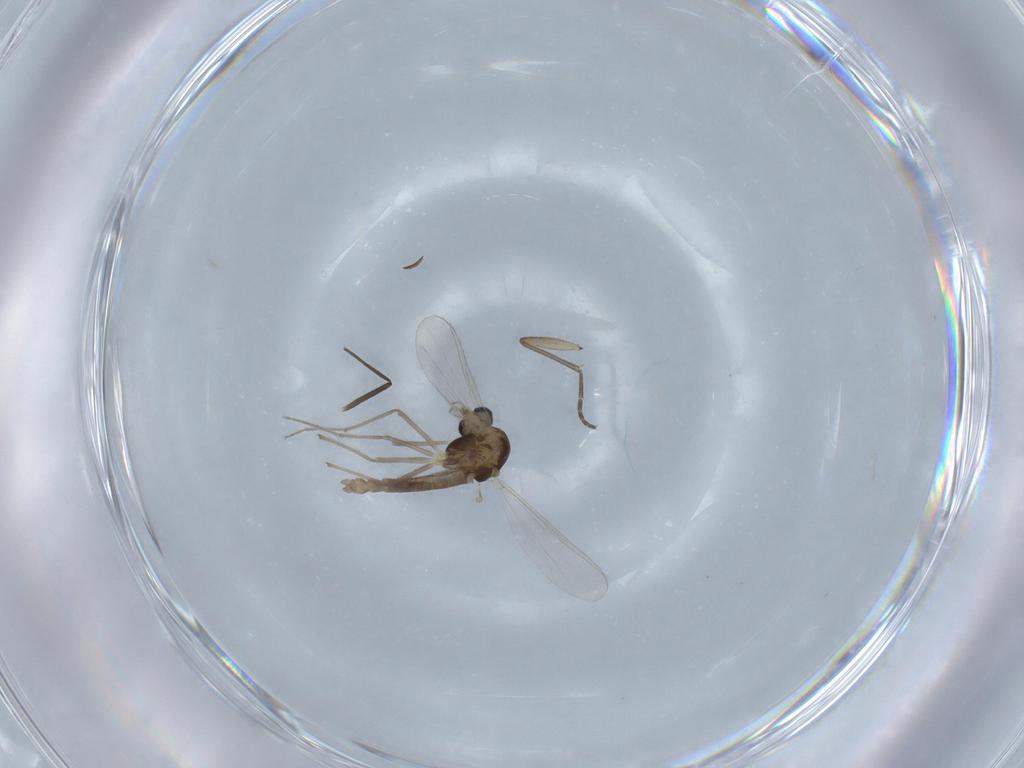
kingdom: Animalia
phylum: Arthropoda
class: Insecta
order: Diptera
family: Chironomidae
